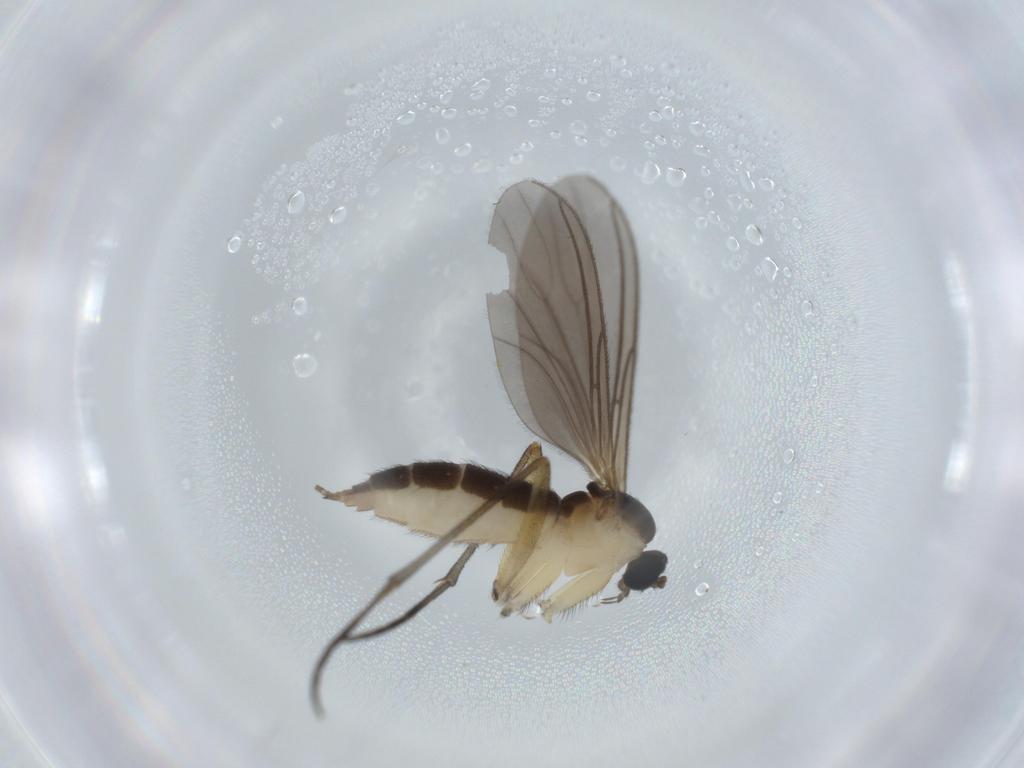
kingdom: Animalia
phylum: Arthropoda
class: Insecta
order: Diptera
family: Sciaridae
